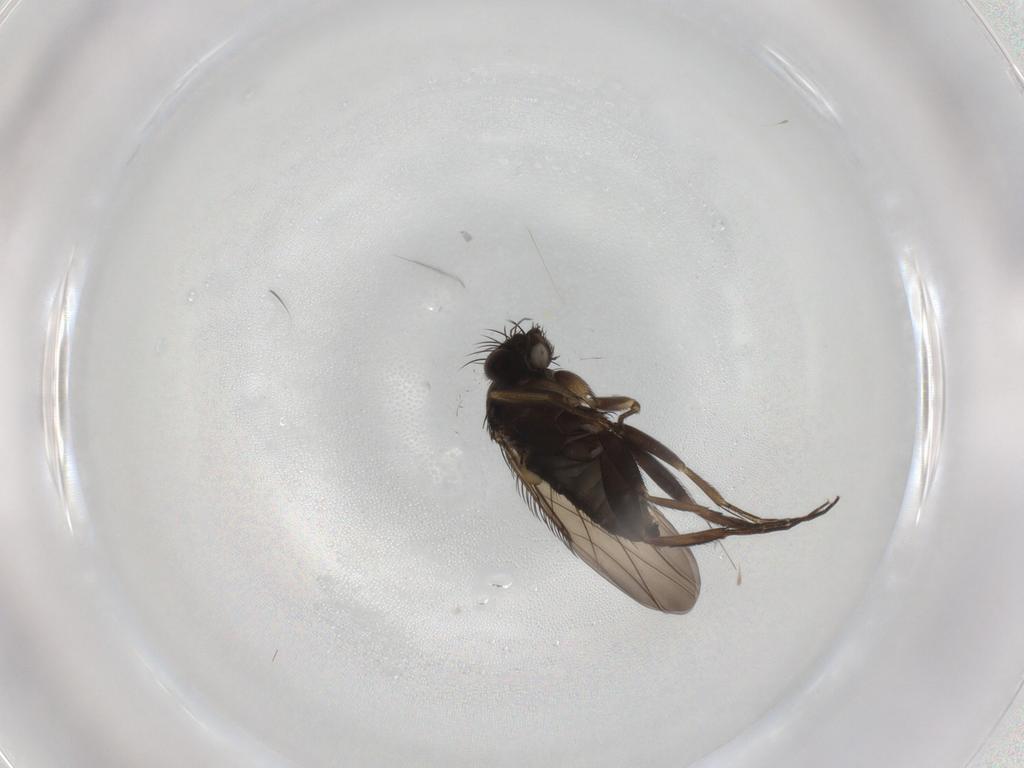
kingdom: Animalia
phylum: Arthropoda
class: Insecta
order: Diptera
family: Phoridae
